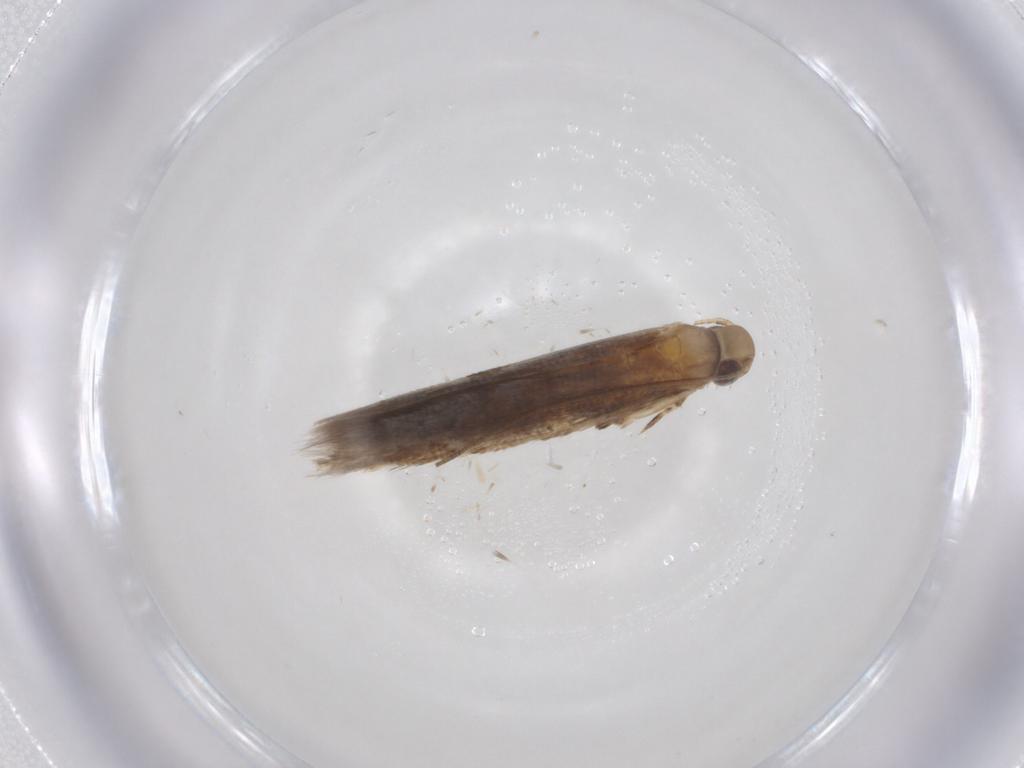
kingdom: Animalia
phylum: Arthropoda
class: Insecta
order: Lepidoptera
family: Gracillariidae
